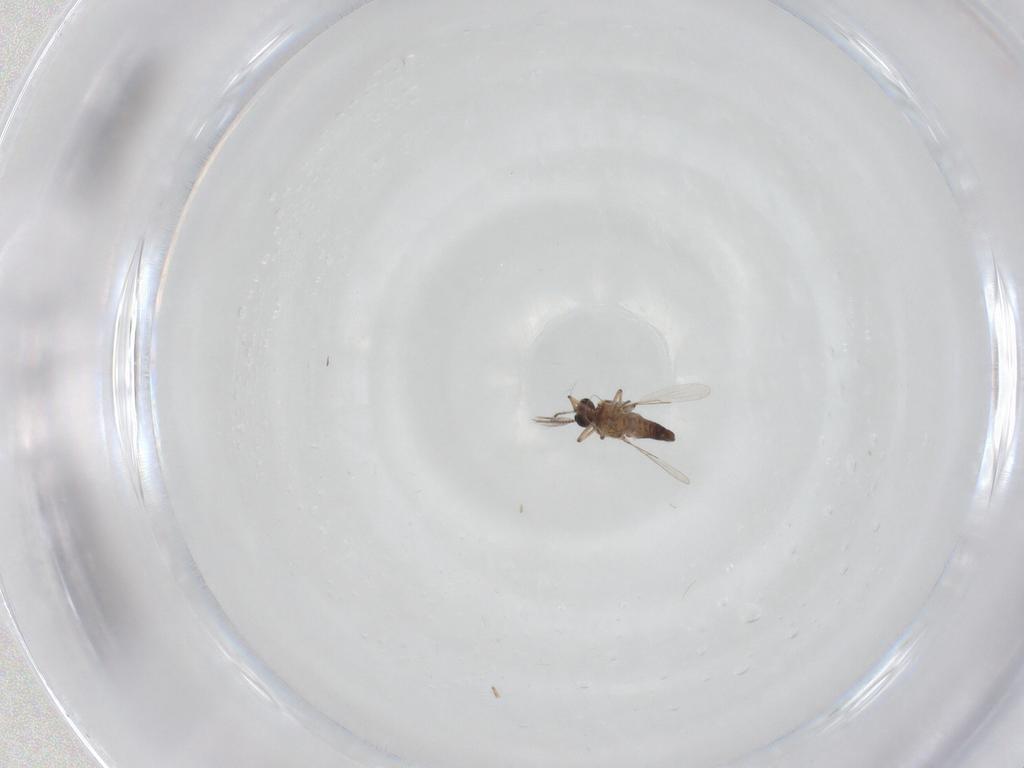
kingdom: Animalia
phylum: Arthropoda
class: Insecta
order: Diptera
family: Ceratopogonidae
